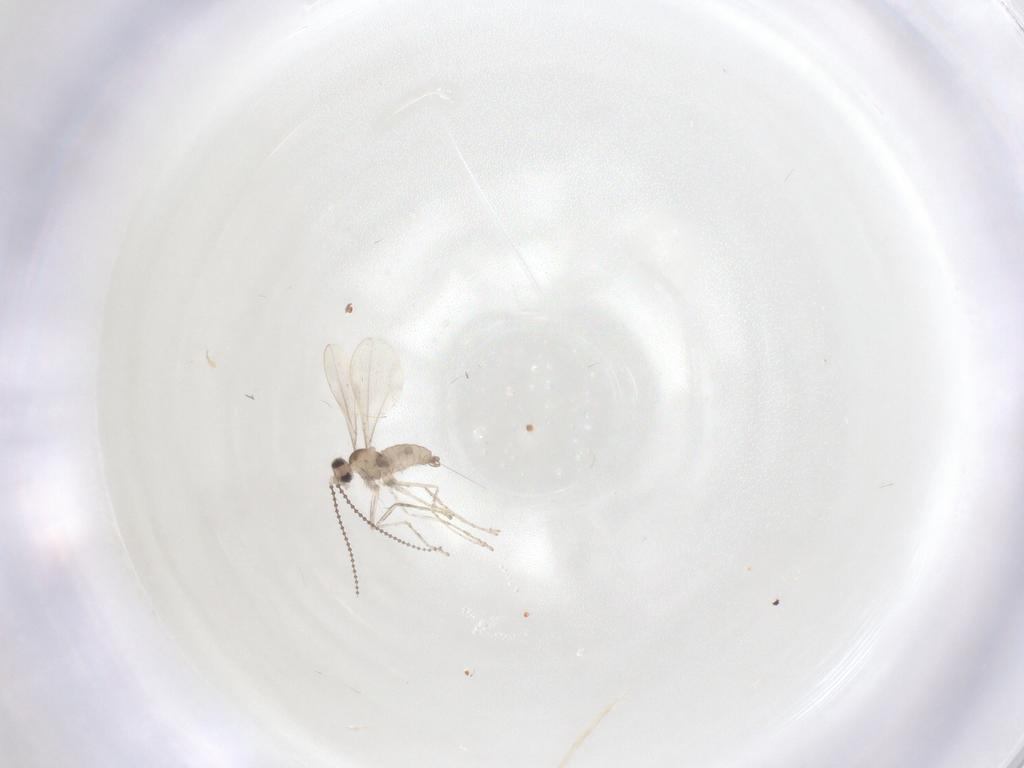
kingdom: Animalia
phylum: Arthropoda
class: Insecta
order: Diptera
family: Cecidomyiidae
